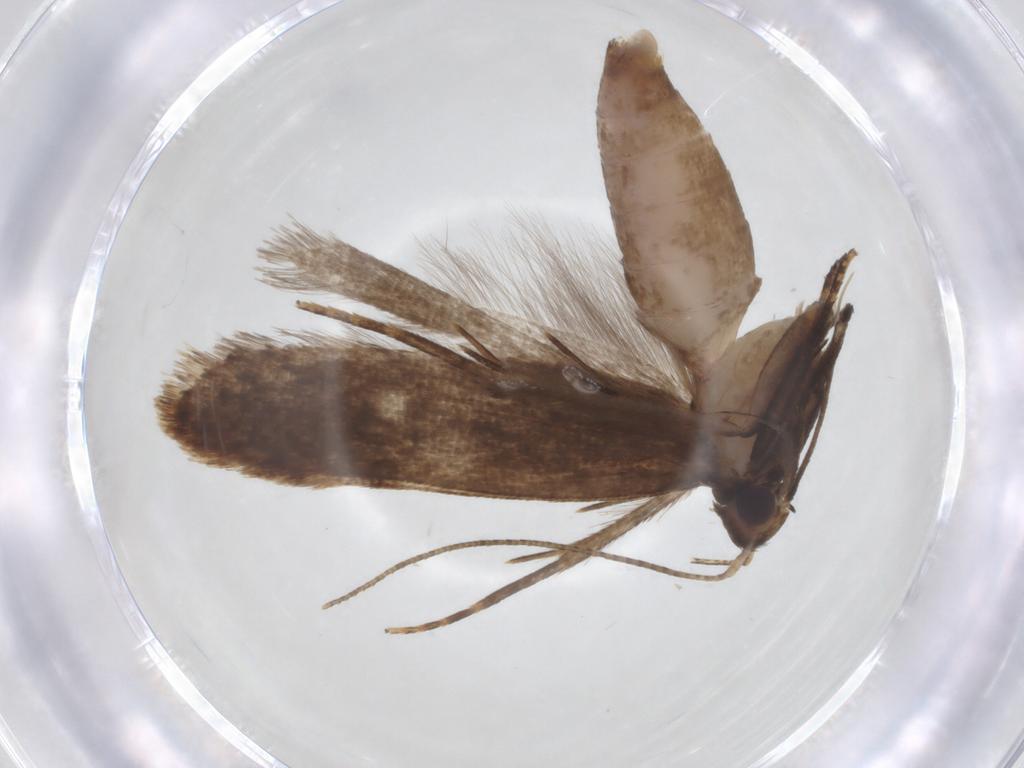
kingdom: Animalia
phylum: Arthropoda
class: Insecta
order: Lepidoptera
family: Gelechiidae
